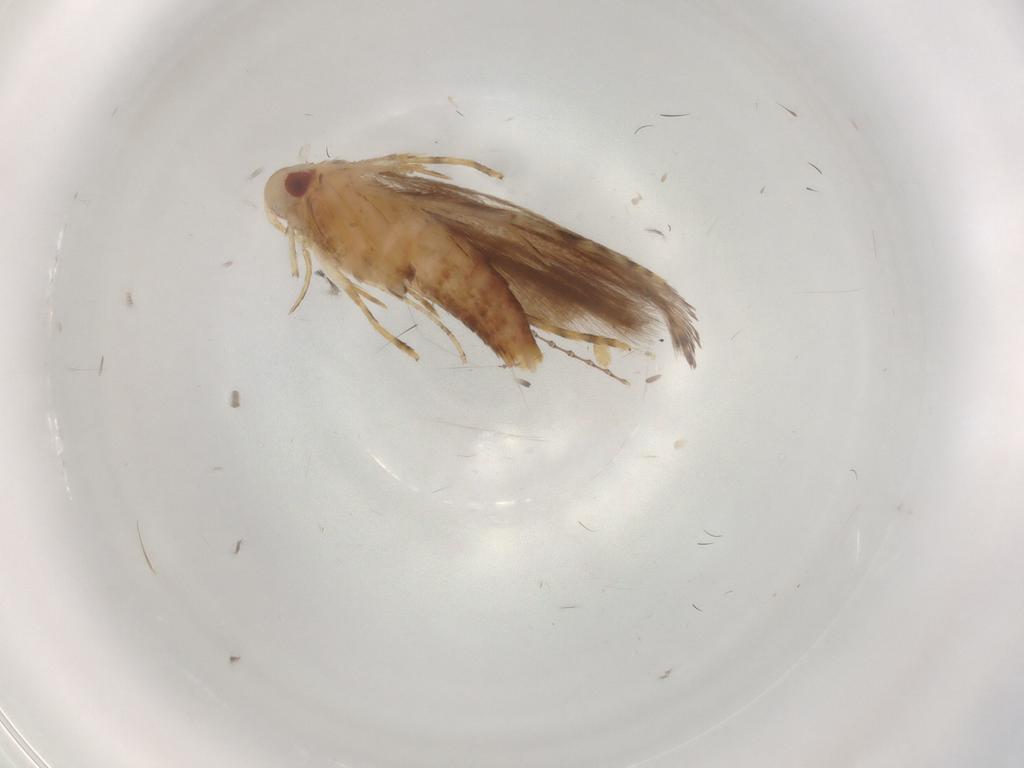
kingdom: Animalia
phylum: Arthropoda
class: Insecta
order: Lepidoptera
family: Cosmopterigidae
